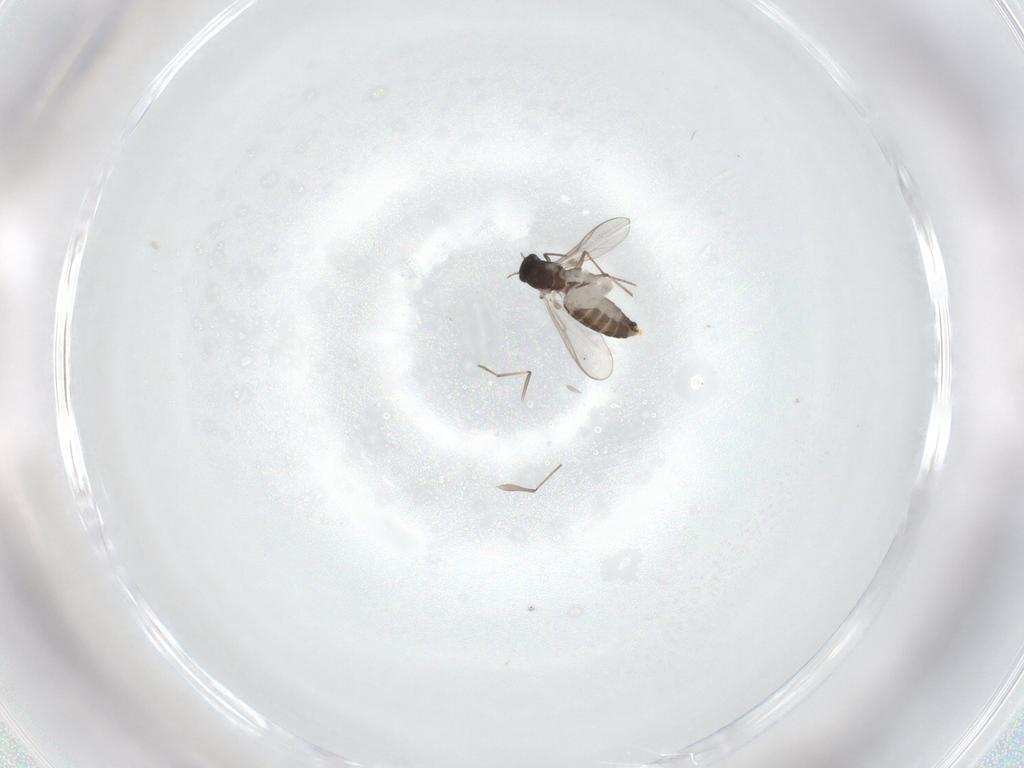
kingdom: Animalia
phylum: Arthropoda
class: Insecta
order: Diptera
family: Chironomidae
